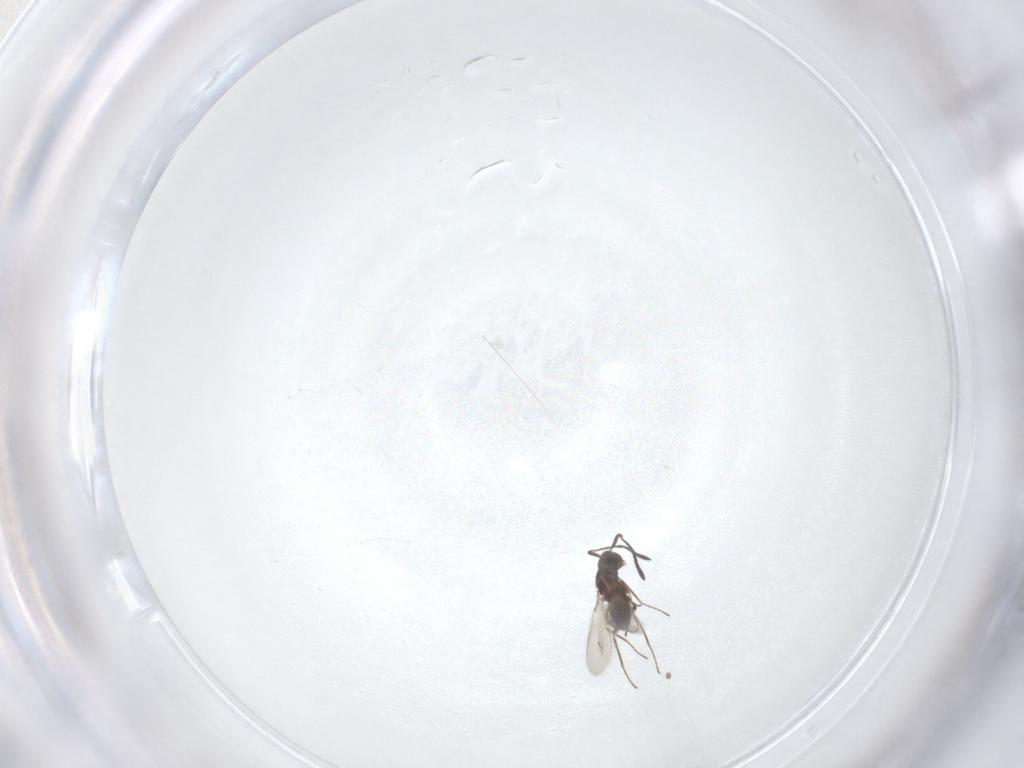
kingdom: Animalia
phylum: Arthropoda
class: Insecta
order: Hymenoptera
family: Mymaridae
